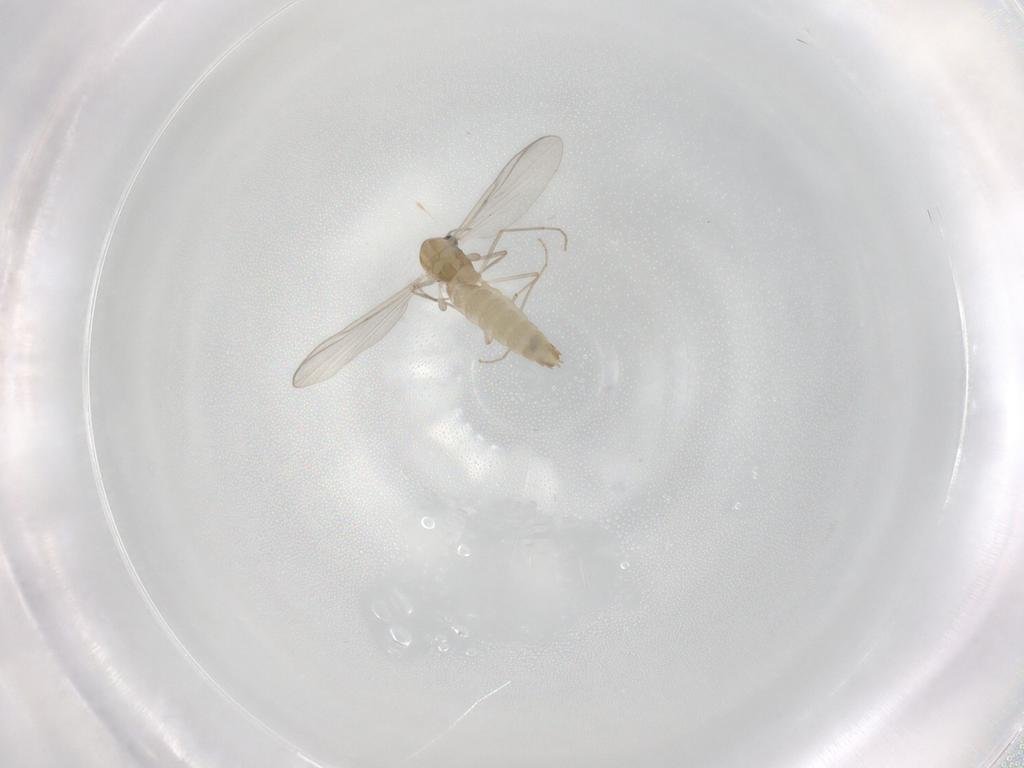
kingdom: Animalia
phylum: Arthropoda
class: Insecta
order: Diptera
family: Chironomidae
